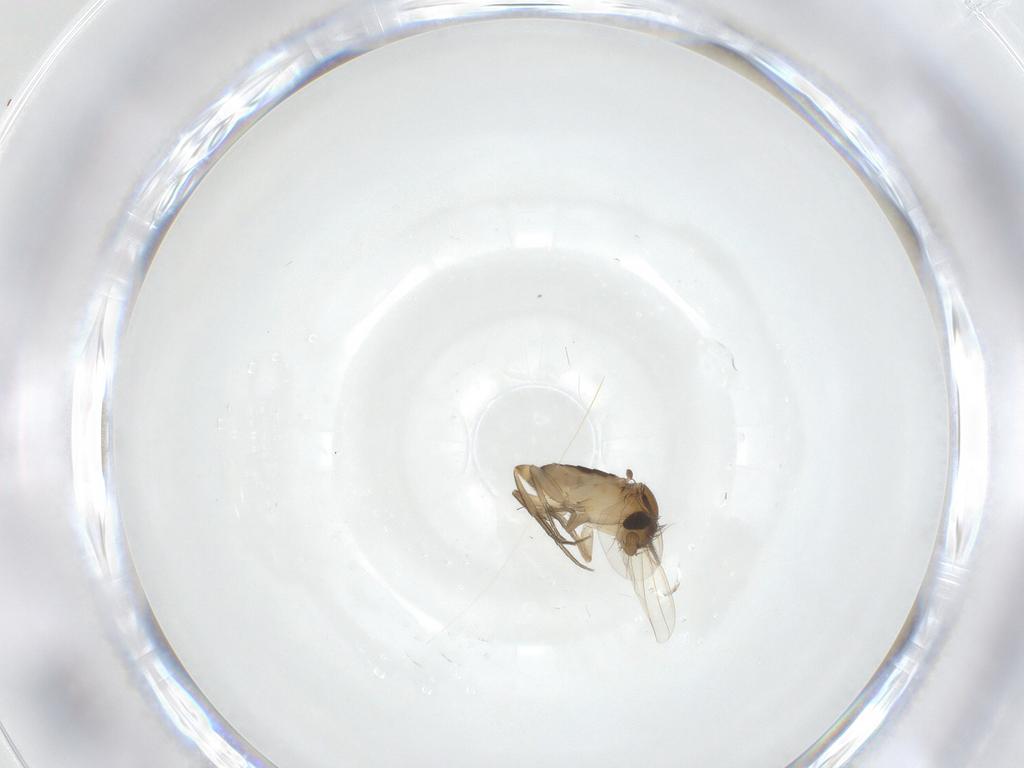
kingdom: Animalia
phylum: Arthropoda
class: Insecta
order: Diptera
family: Phoridae
